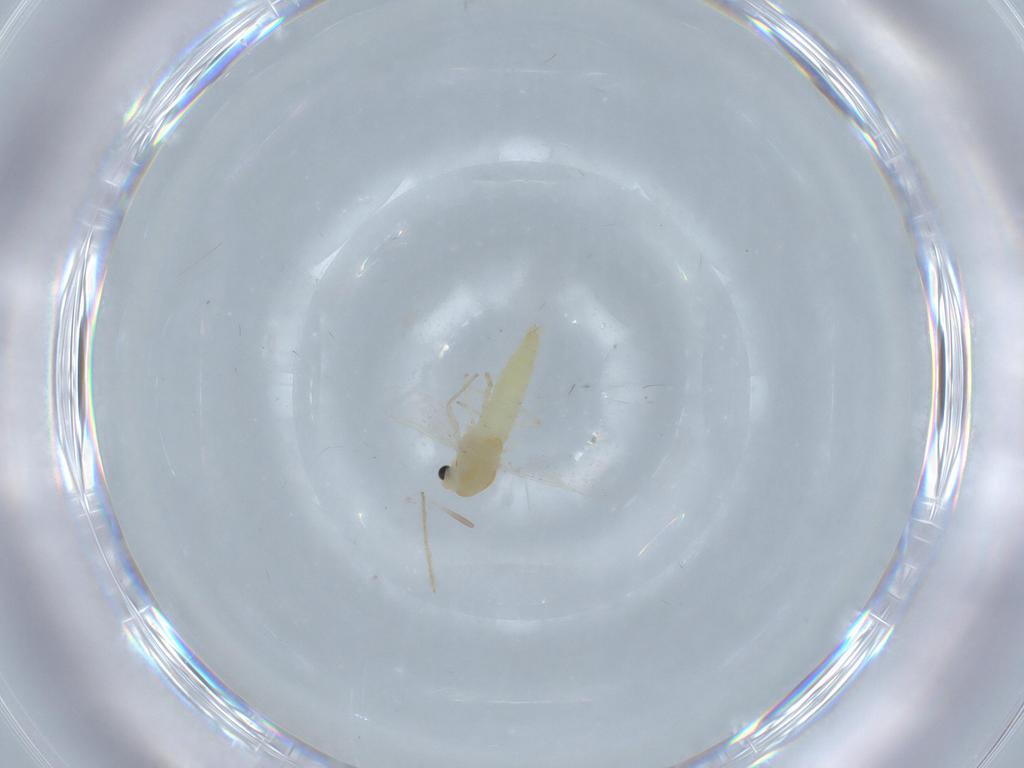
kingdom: Animalia
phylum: Arthropoda
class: Insecta
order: Diptera
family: Chironomidae
